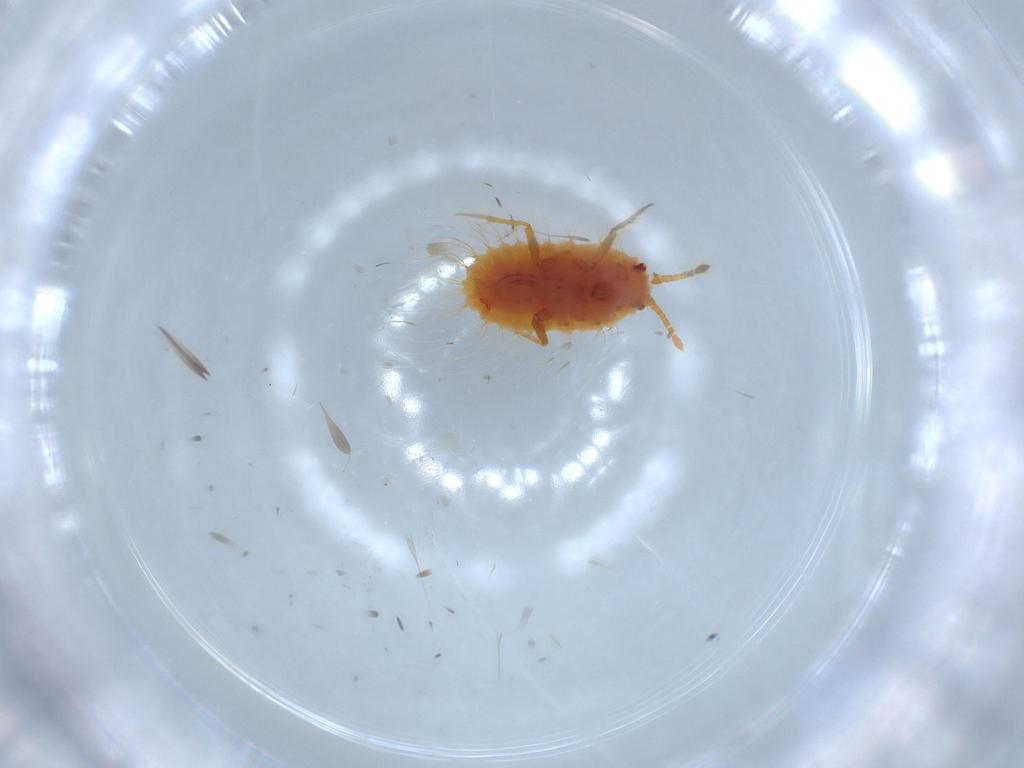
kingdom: Animalia
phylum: Arthropoda
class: Insecta
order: Hemiptera
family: Coccoidea_incertae_sedis
